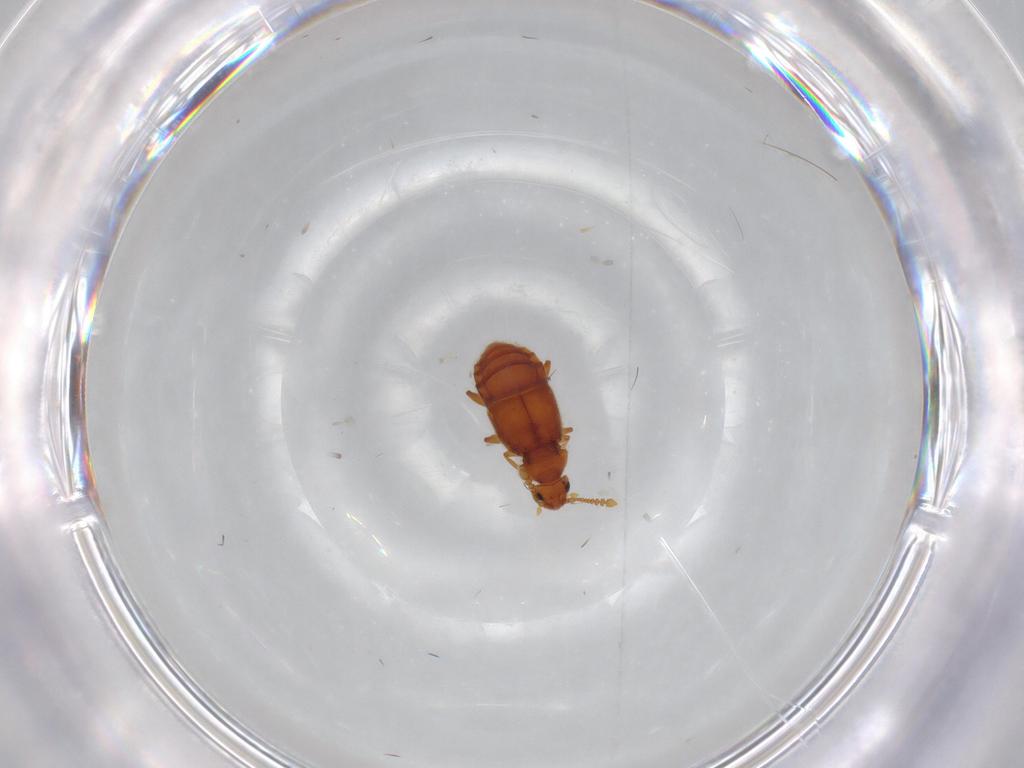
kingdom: Animalia
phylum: Arthropoda
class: Insecta
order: Coleoptera
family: Staphylinidae
